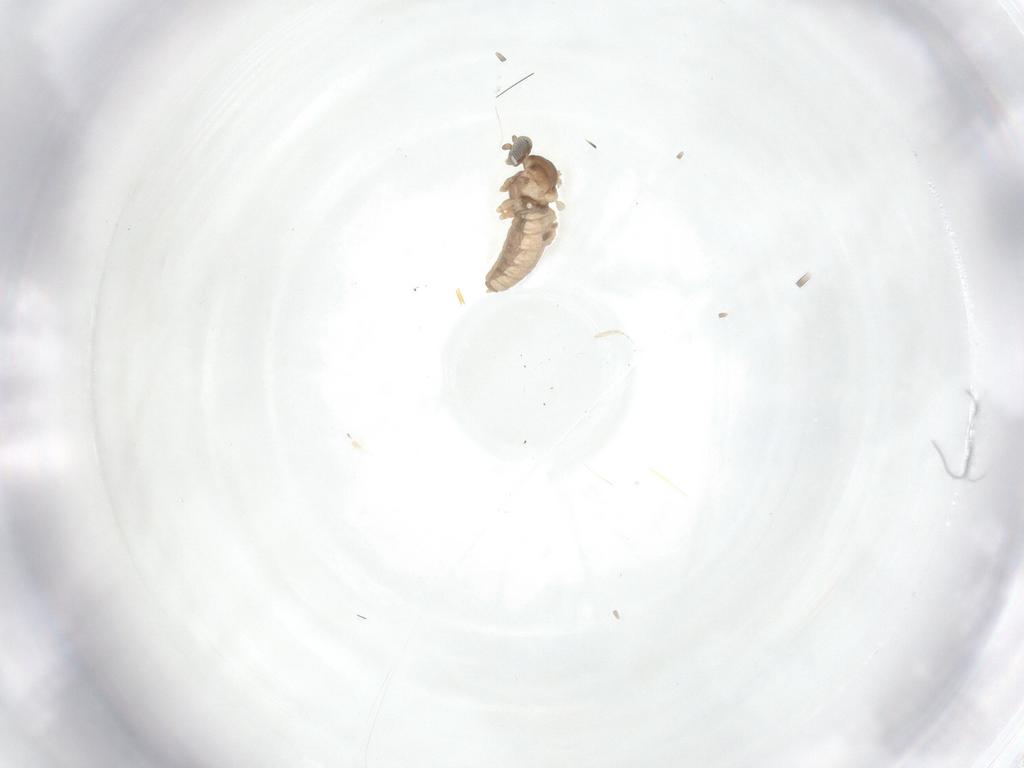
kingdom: Animalia
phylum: Arthropoda
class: Insecta
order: Diptera
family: Cecidomyiidae
